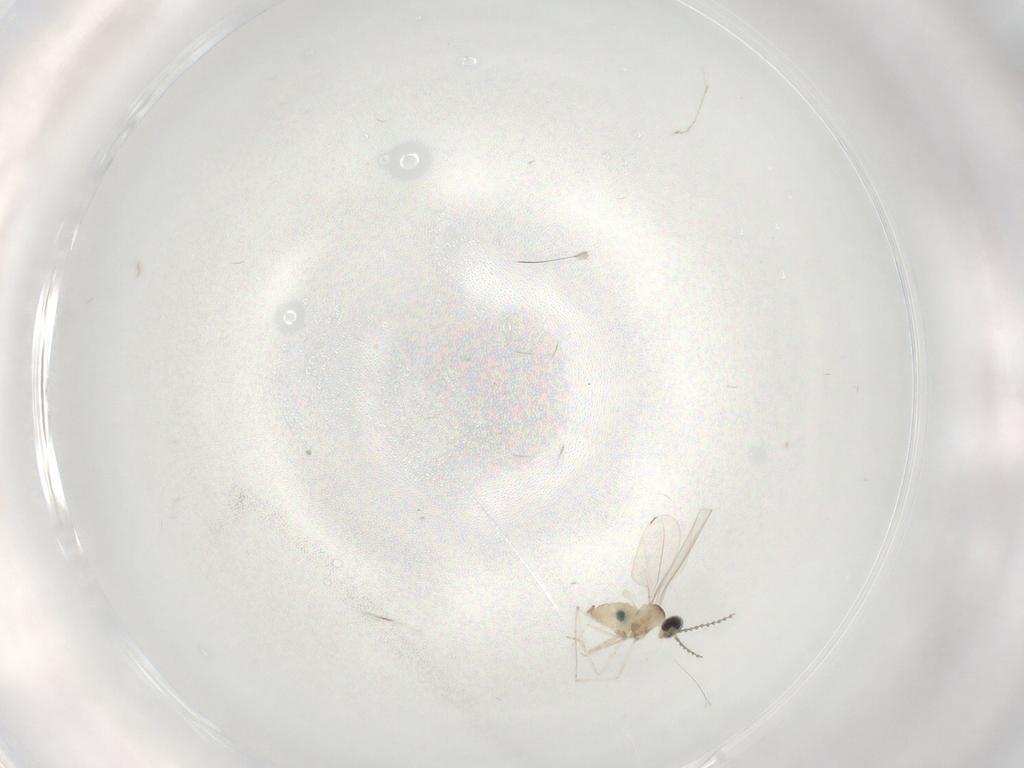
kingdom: Animalia
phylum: Arthropoda
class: Insecta
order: Diptera
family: Cecidomyiidae
